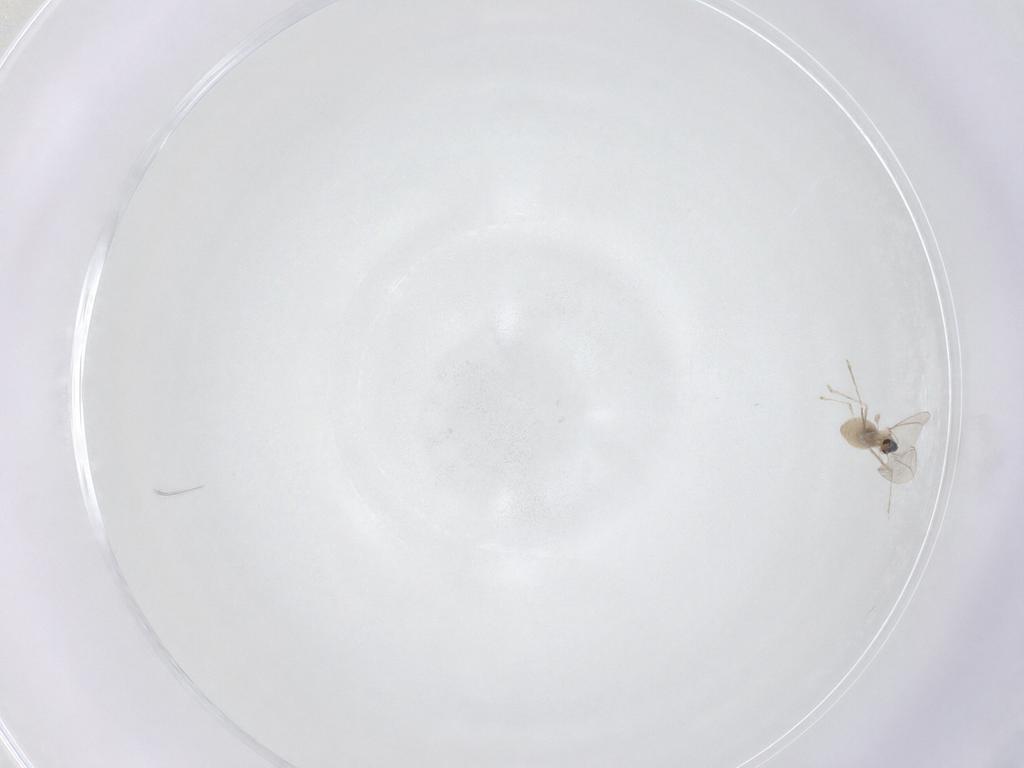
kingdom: Animalia
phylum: Arthropoda
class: Insecta
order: Diptera
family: Cecidomyiidae
